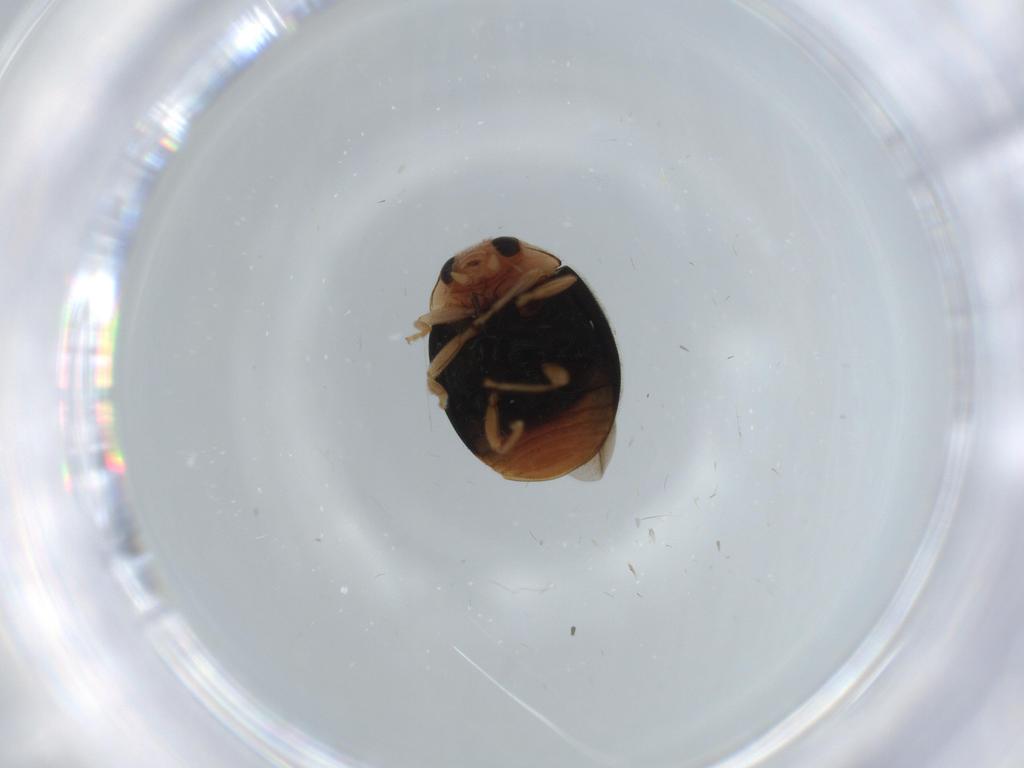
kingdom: Animalia
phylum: Arthropoda
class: Insecta
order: Coleoptera
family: Coccinellidae
